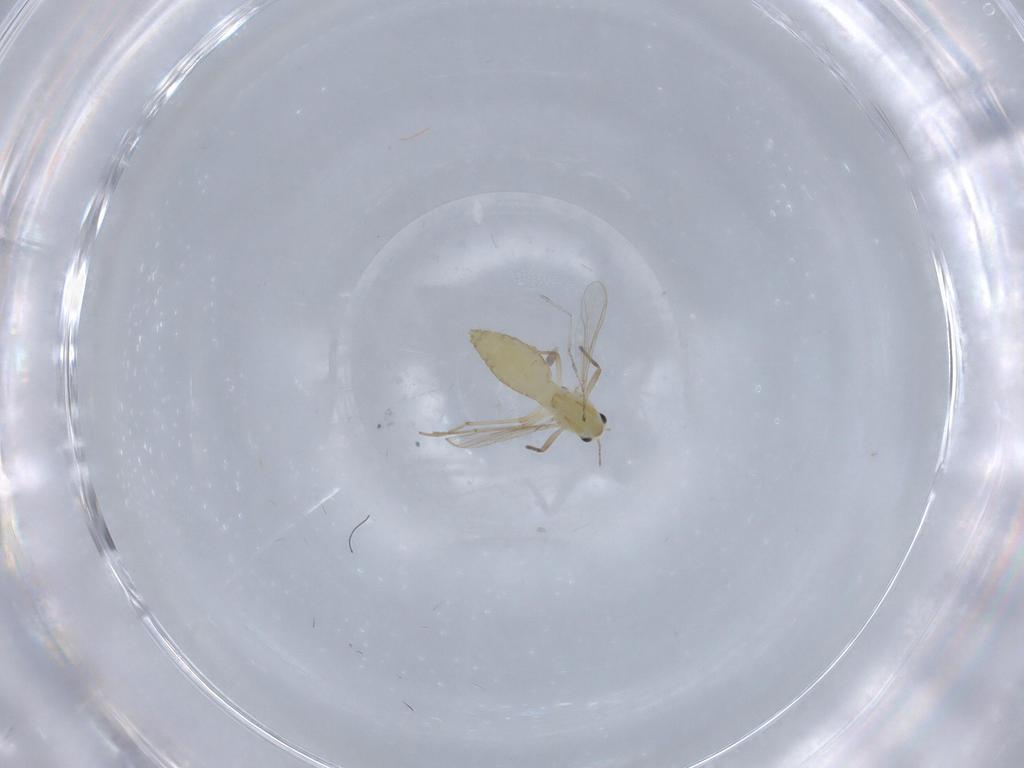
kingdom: Animalia
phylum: Arthropoda
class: Insecta
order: Diptera
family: Chironomidae
